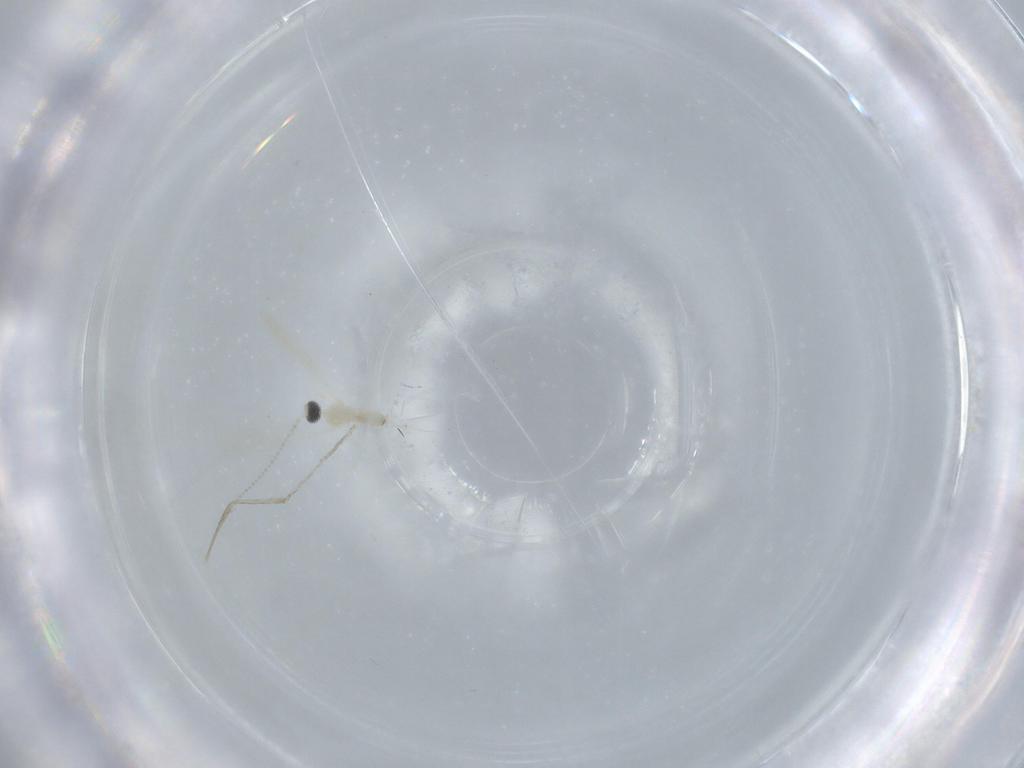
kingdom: Animalia
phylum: Arthropoda
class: Insecta
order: Diptera
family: Cecidomyiidae
